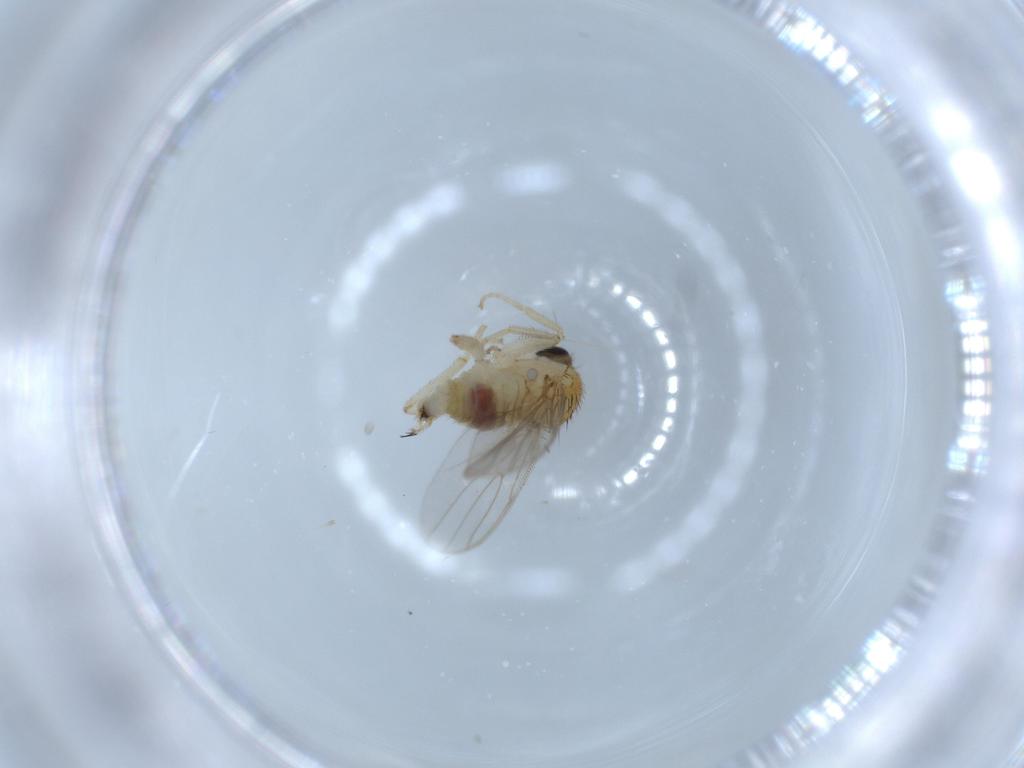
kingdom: Animalia
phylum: Arthropoda
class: Insecta
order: Diptera
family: Hybotidae
